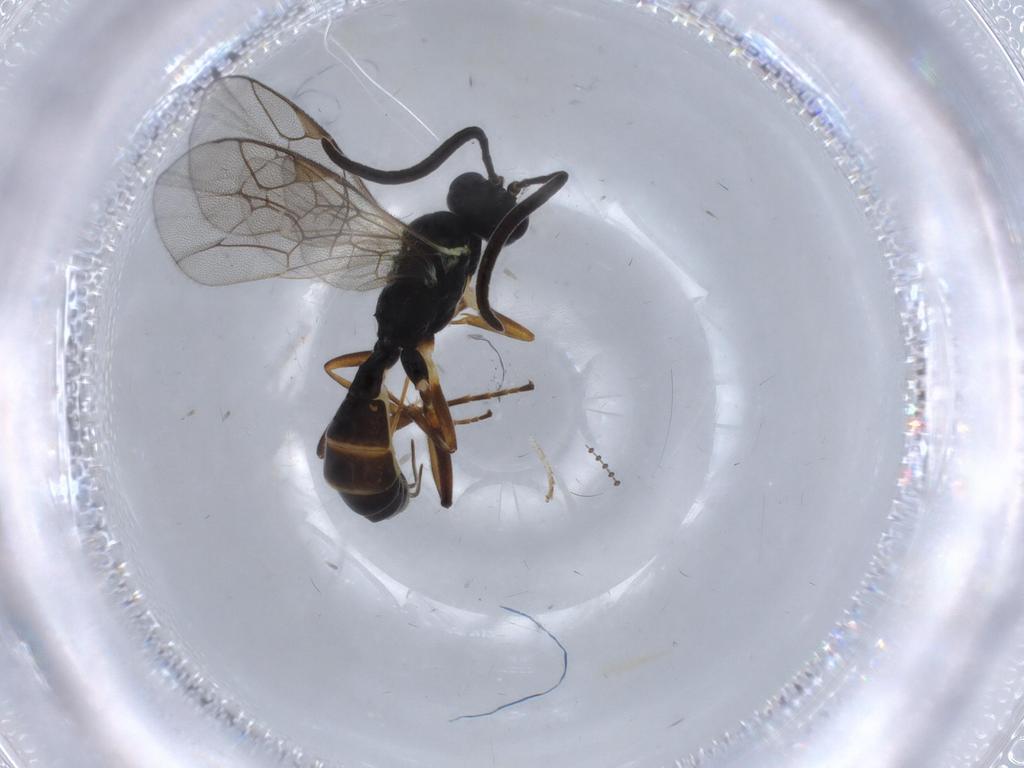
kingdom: Animalia
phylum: Arthropoda
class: Insecta
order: Hymenoptera
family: Ichneumonidae
